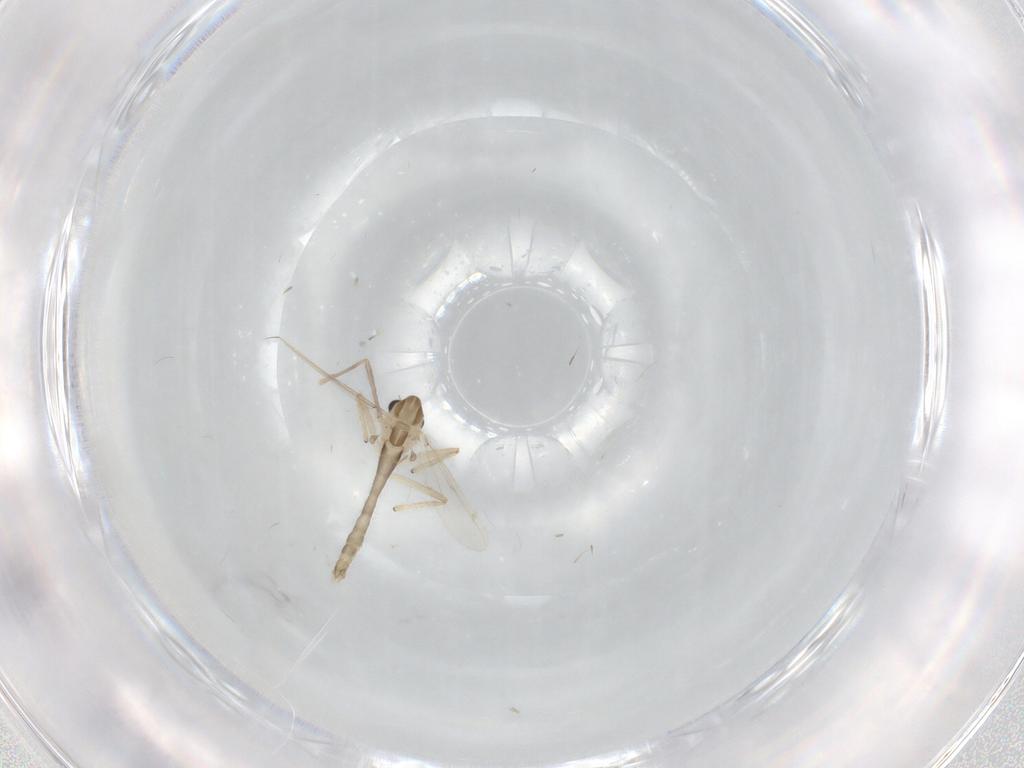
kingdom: Animalia
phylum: Arthropoda
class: Insecta
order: Diptera
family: Chironomidae
